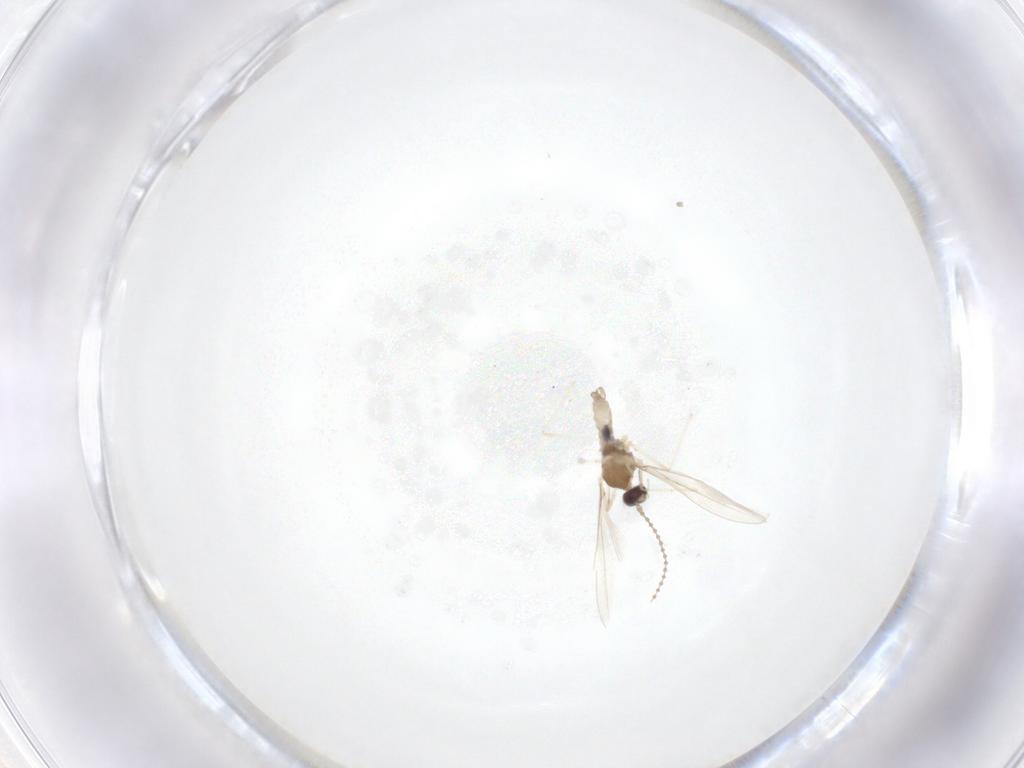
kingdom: Animalia
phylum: Arthropoda
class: Insecta
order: Diptera
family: Cecidomyiidae
